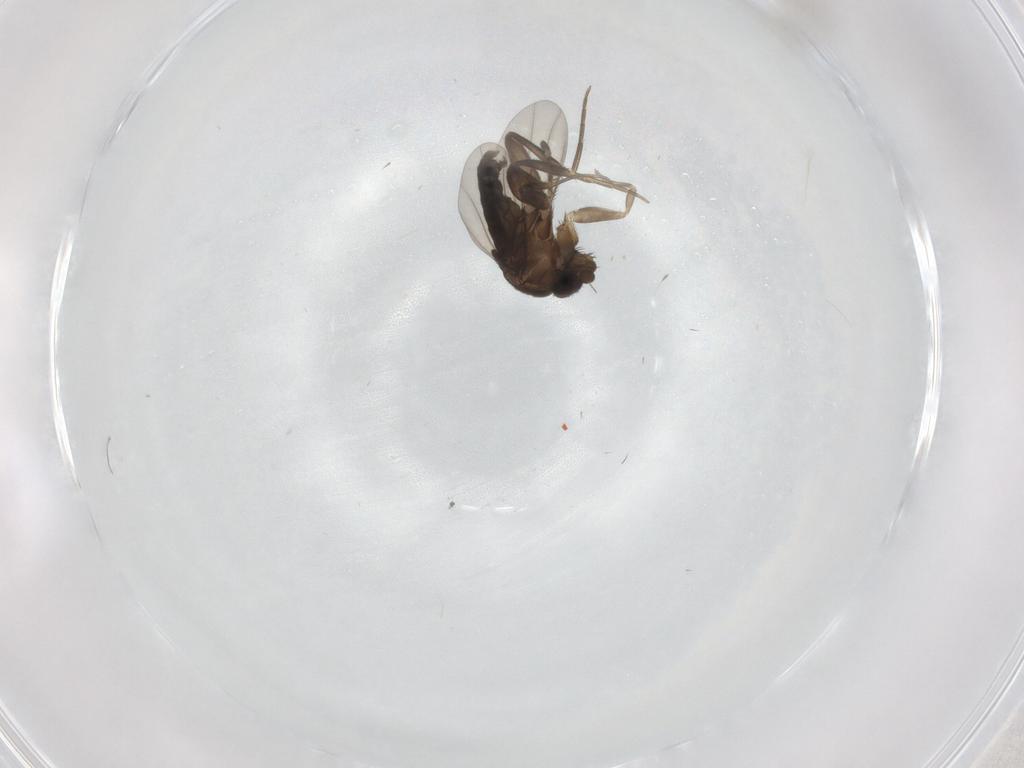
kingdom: Animalia
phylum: Arthropoda
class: Insecta
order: Diptera
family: Phoridae
